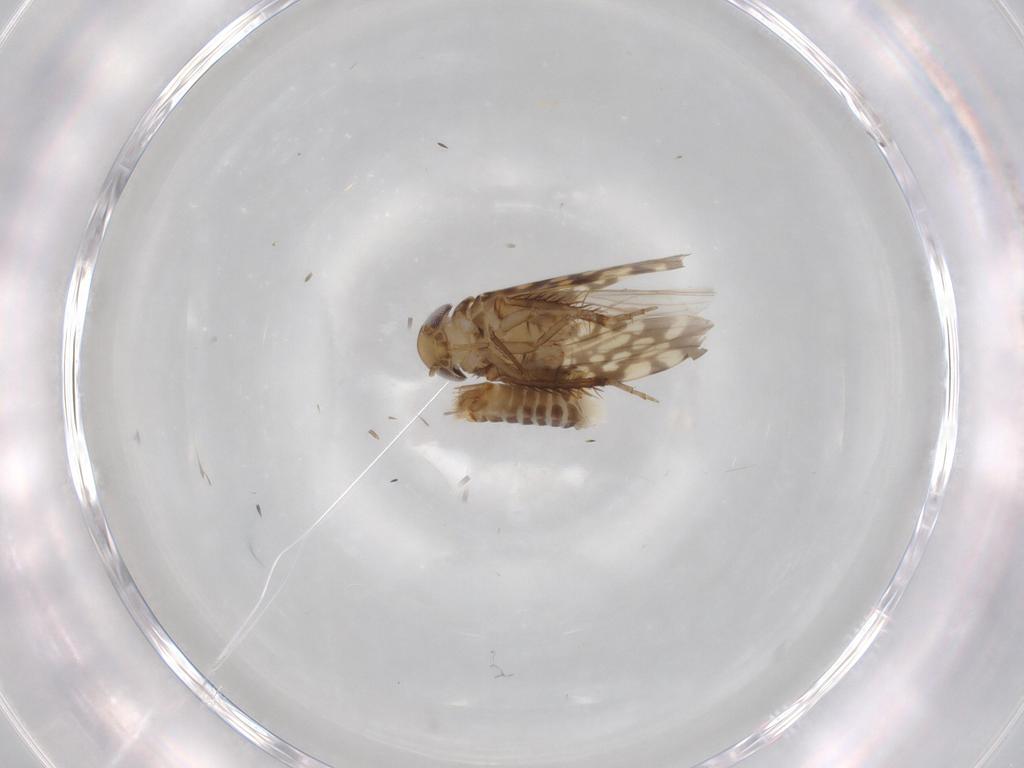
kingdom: Animalia
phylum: Arthropoda
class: Insecta
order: Hemiptera
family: Cicadellidae
